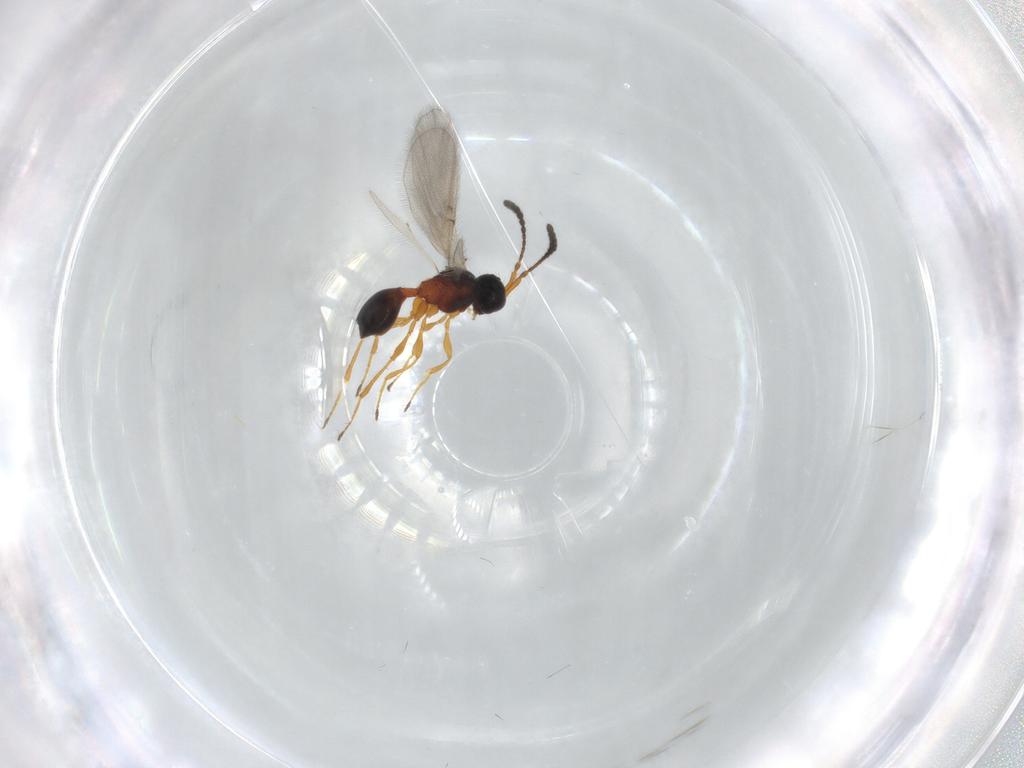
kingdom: Animalia
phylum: Arthropoda
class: Insecta
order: Hymenoptera
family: Diapriidae
